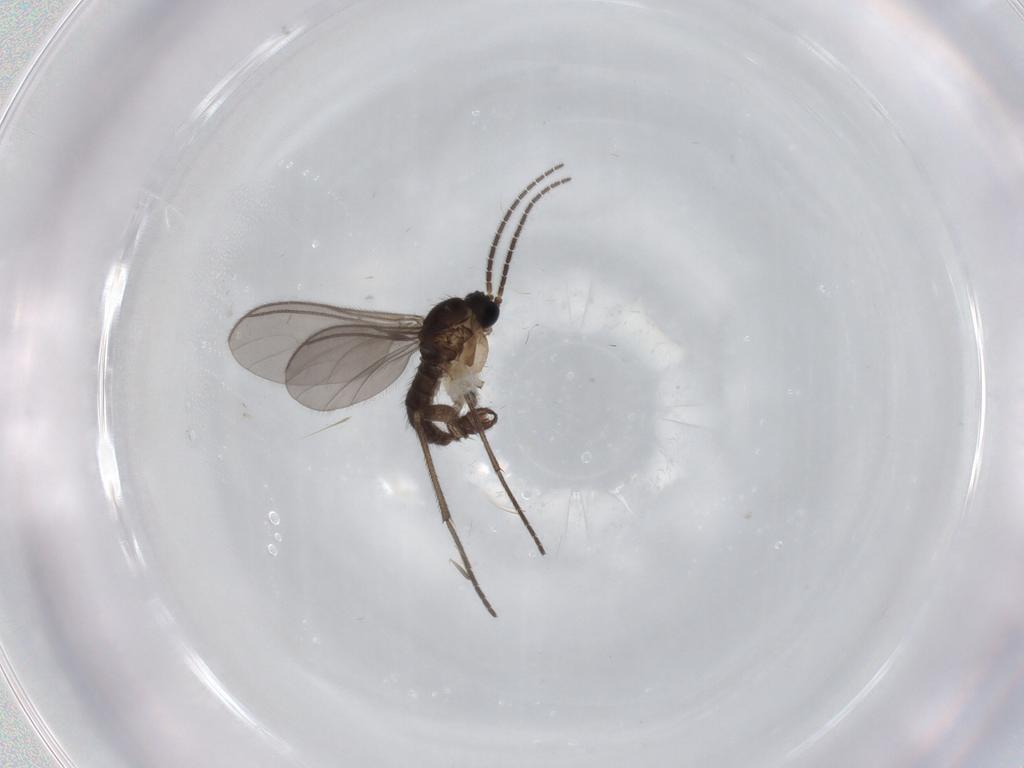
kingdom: Animalia
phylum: Arthropoda
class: Insecta
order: Diptera
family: Sciaridae
